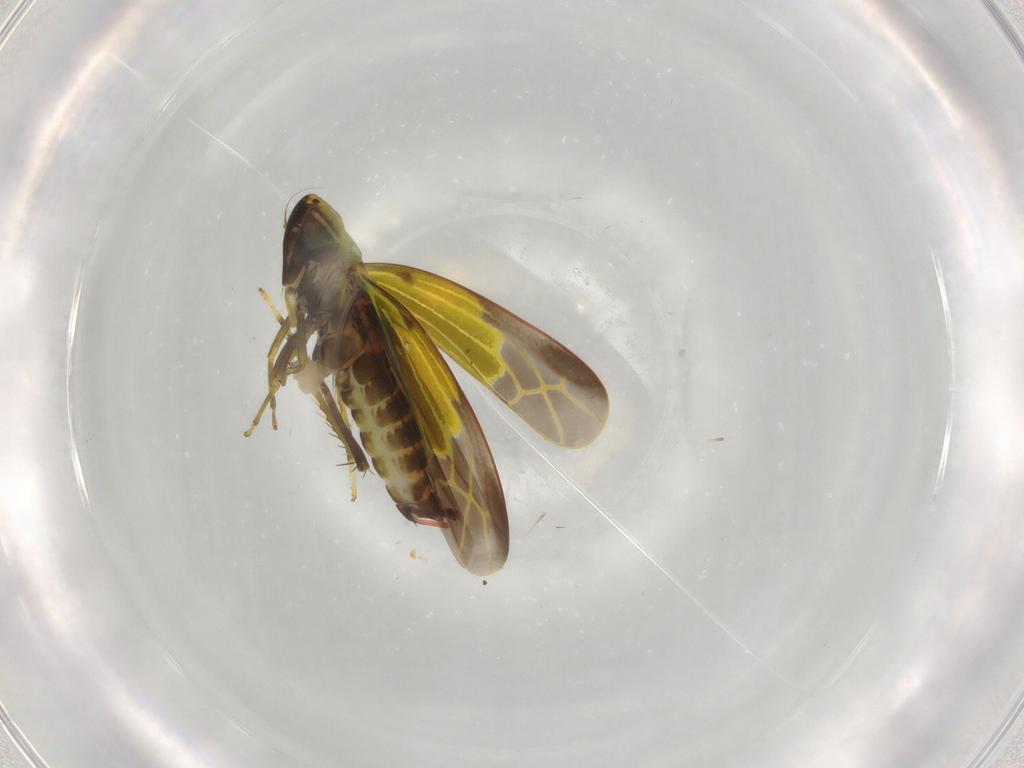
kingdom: Animalia
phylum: Arthropoda
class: Insecta
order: Hemiptera
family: Cicadellidae
